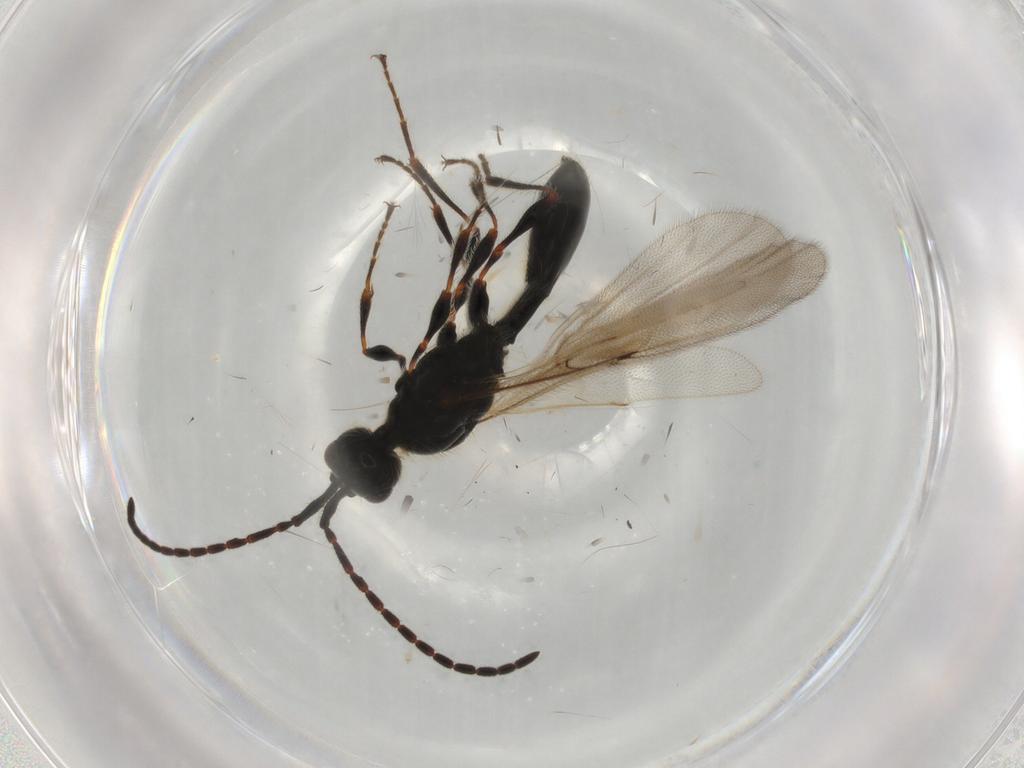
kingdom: Animalia
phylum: Arthropoda
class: Insecta
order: Hymenoptera
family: Diapriidae
